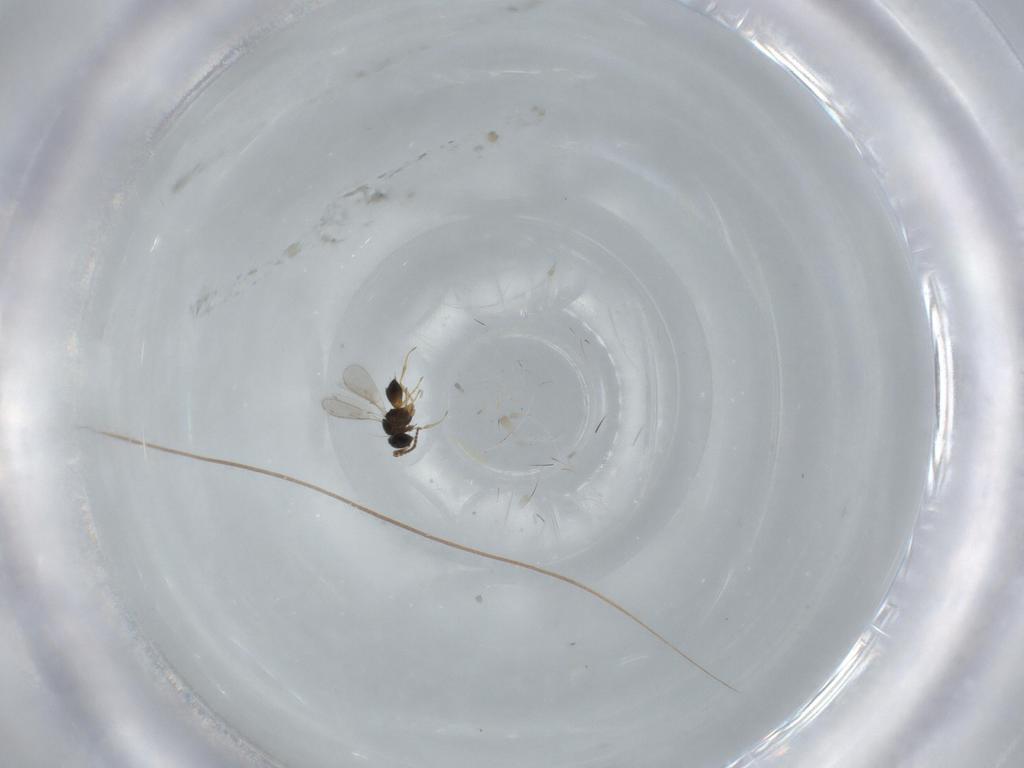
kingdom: Animalia
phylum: Arthropoda
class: Insecta
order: Hymenoptera
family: Scelionidae
